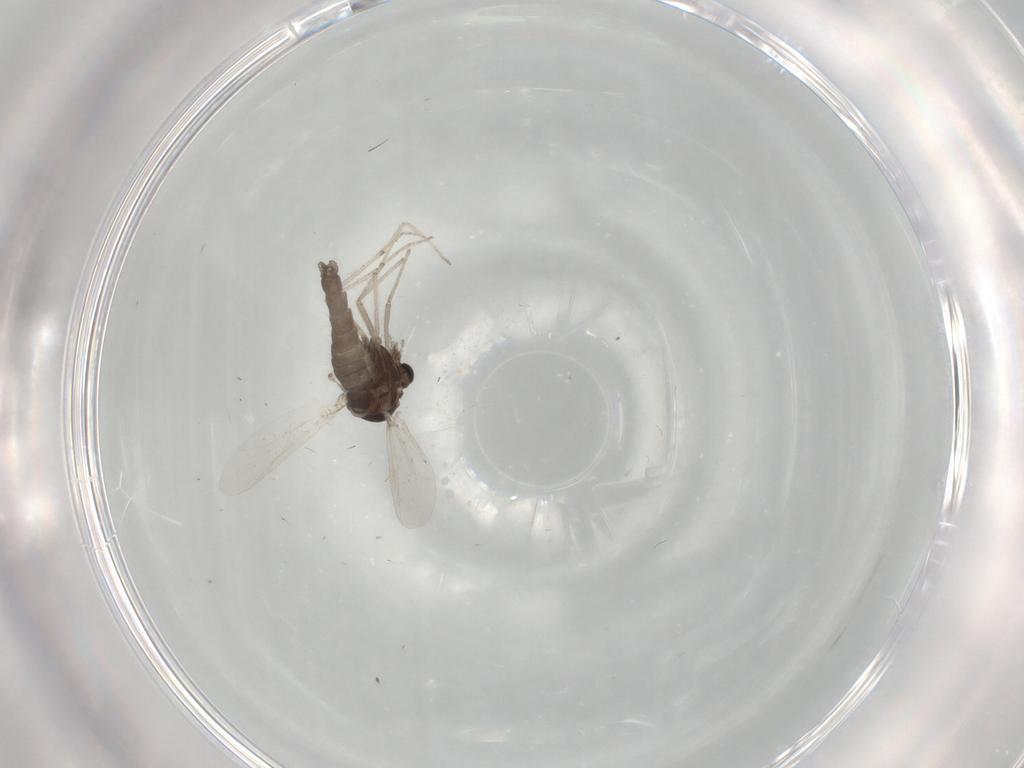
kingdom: Animalia
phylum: Arthropoda
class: Insecta
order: Diptera
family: Chironomidae
